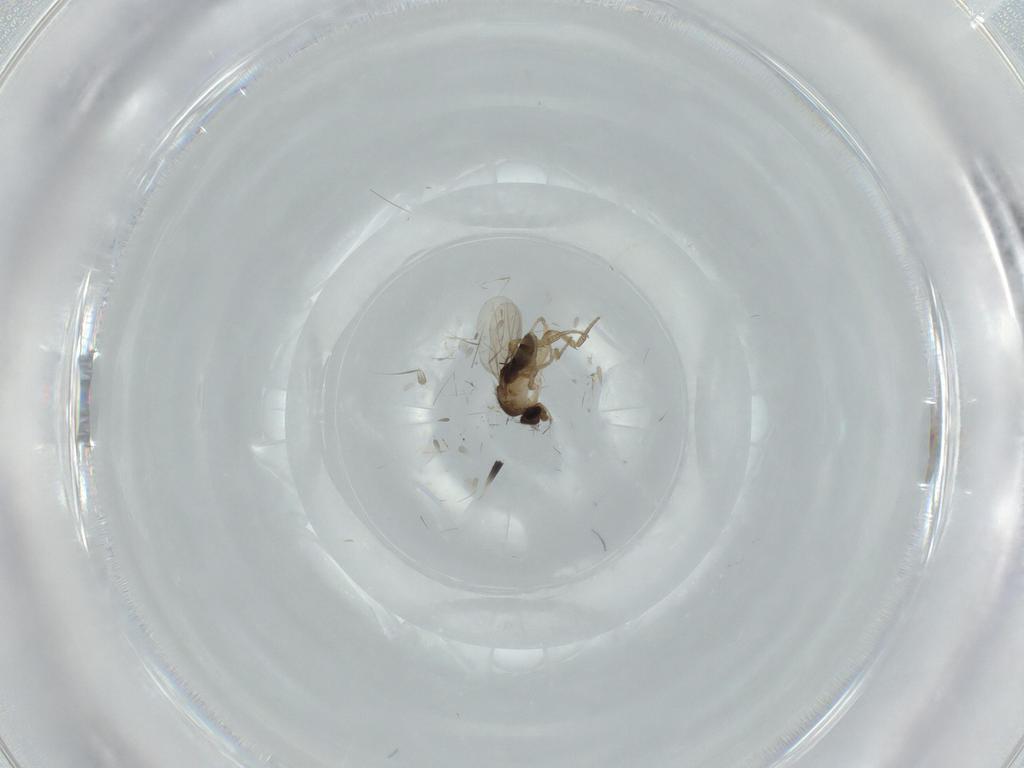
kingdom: Animalia
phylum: Arthropoda
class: Insecta
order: Diptera
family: Phoridae
